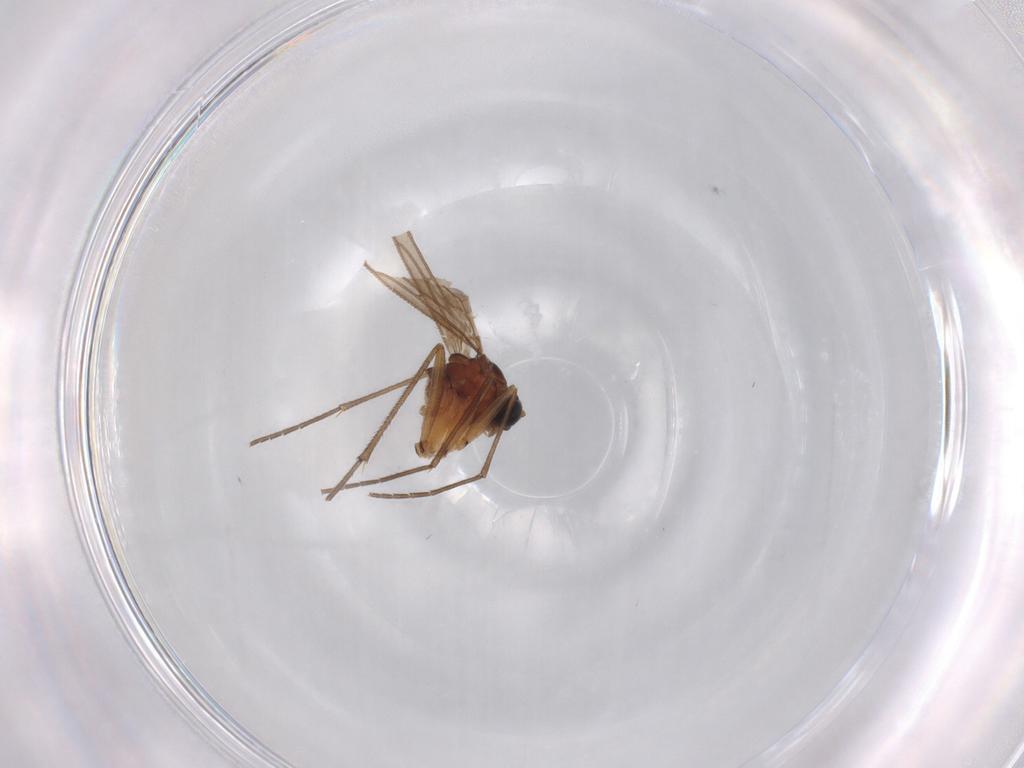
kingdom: Animalia
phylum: Arthropoda
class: Insecta
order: Diptera
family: Sciaridae
